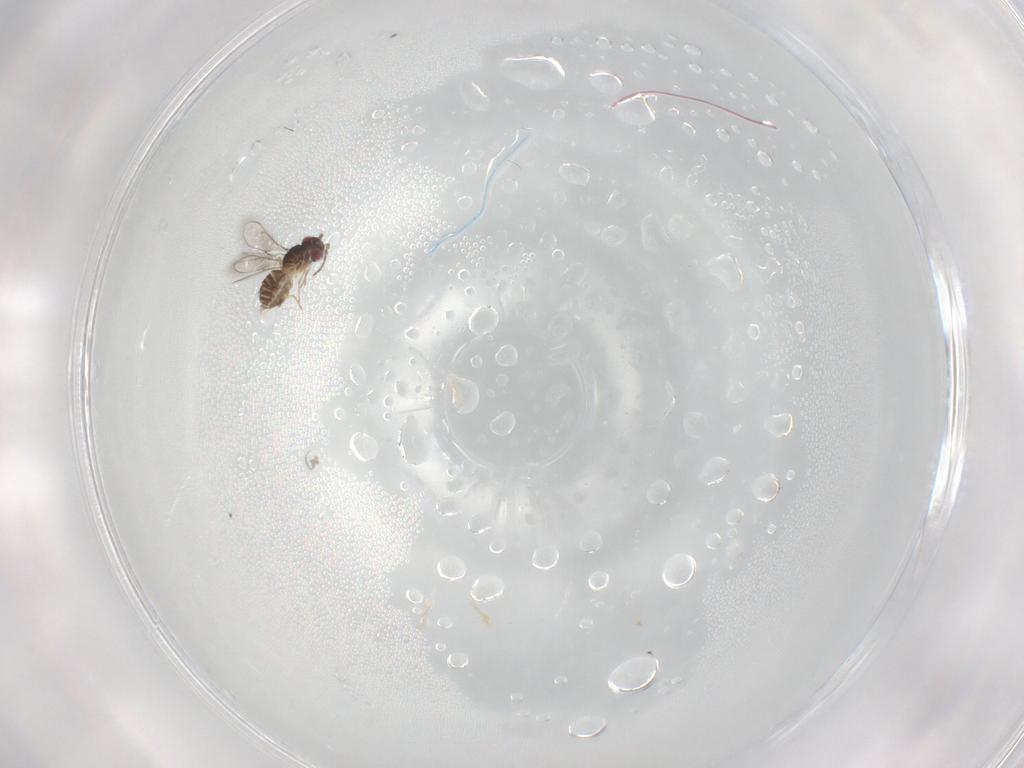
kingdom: Animalia
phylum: Arthropoda
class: Insecta
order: Hymenoptera
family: Eulophidae
